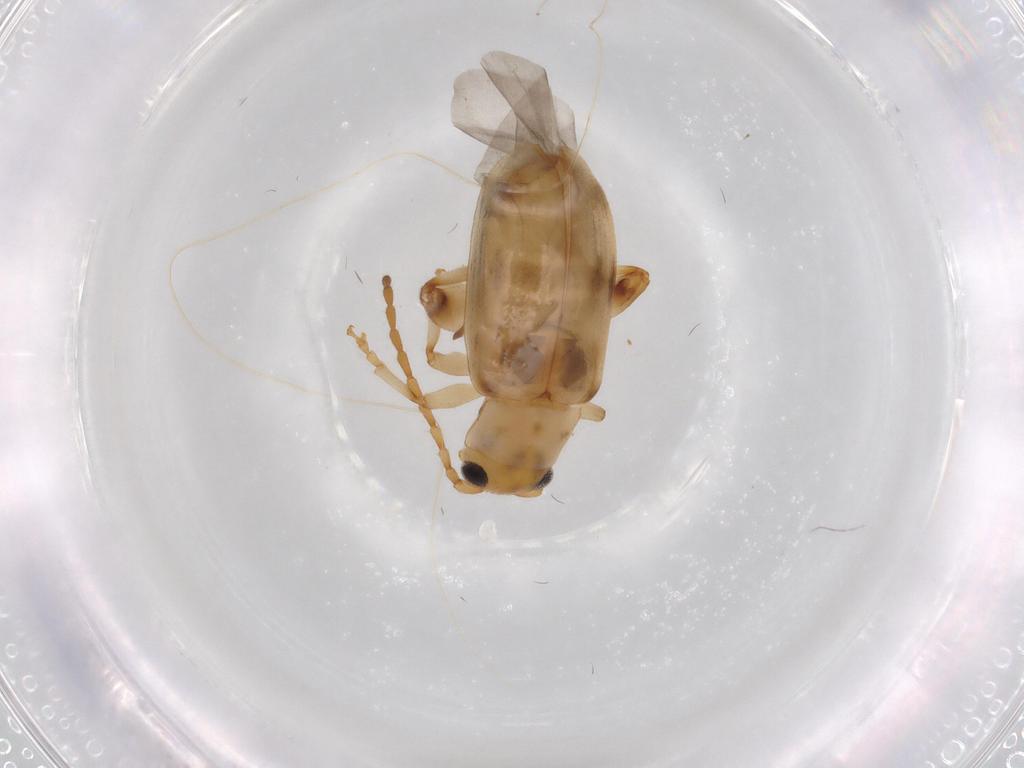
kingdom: Animalia
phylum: Arthropoda
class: Insecta
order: Coleoptera
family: Chrysomelidae
